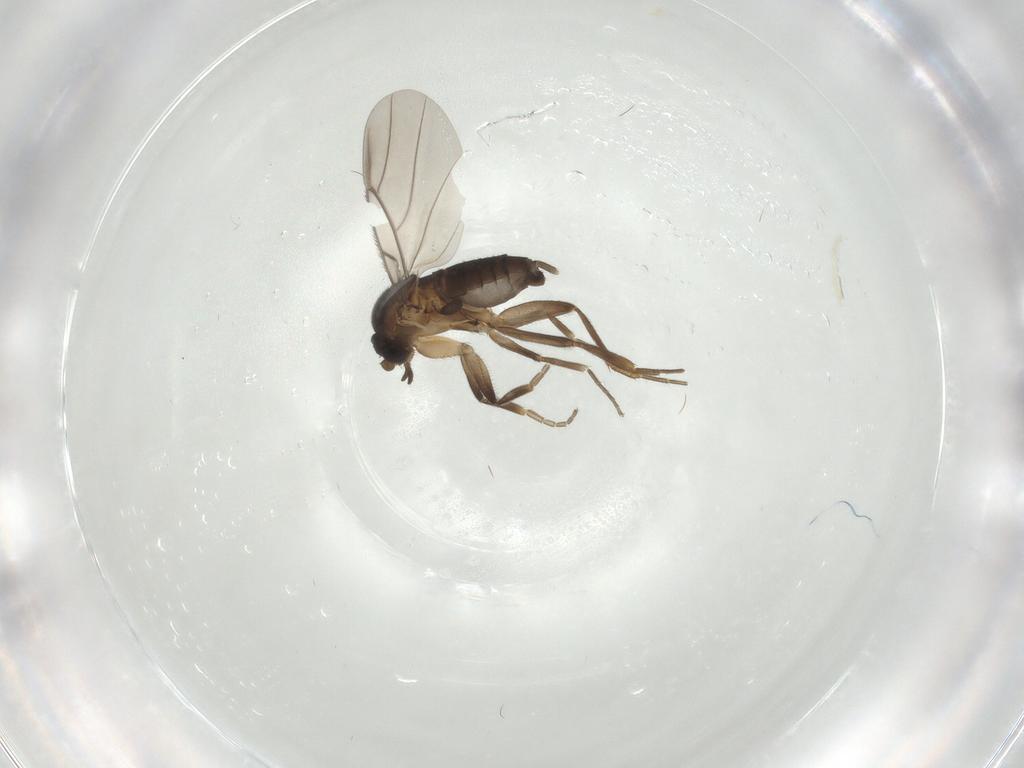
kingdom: Animalia
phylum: Arthropoda
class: Insecta
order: Diptera
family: Phoridae
